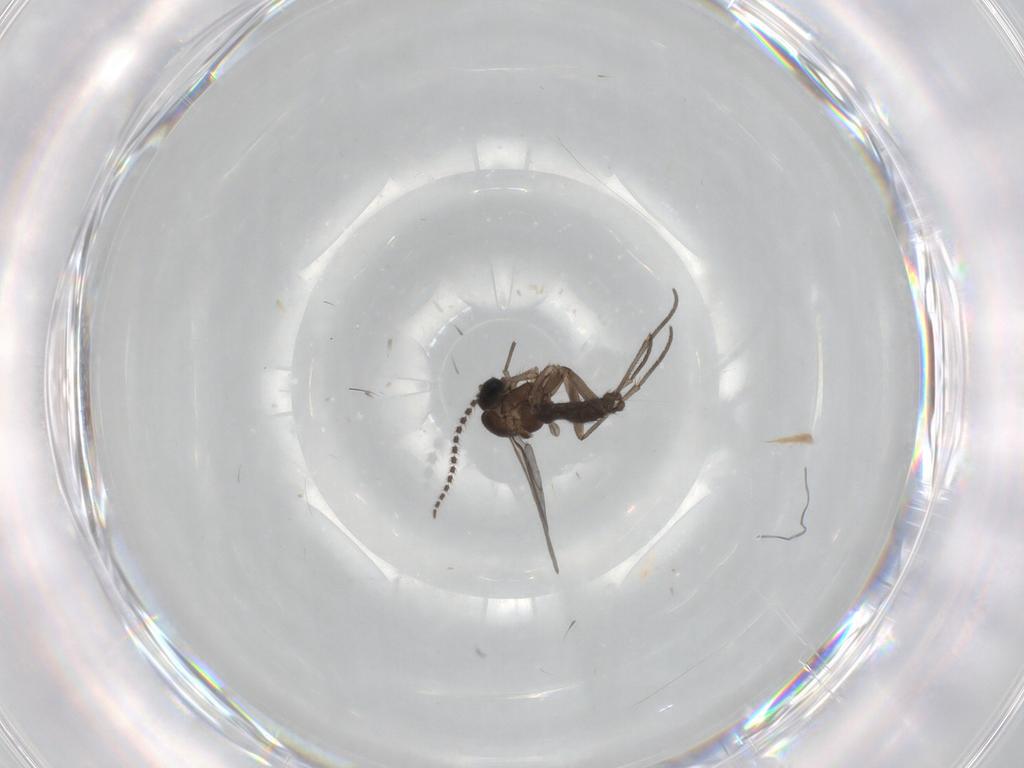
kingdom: Animalia
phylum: Arthropoda
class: Insecta
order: Diptera
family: Sciaridae
